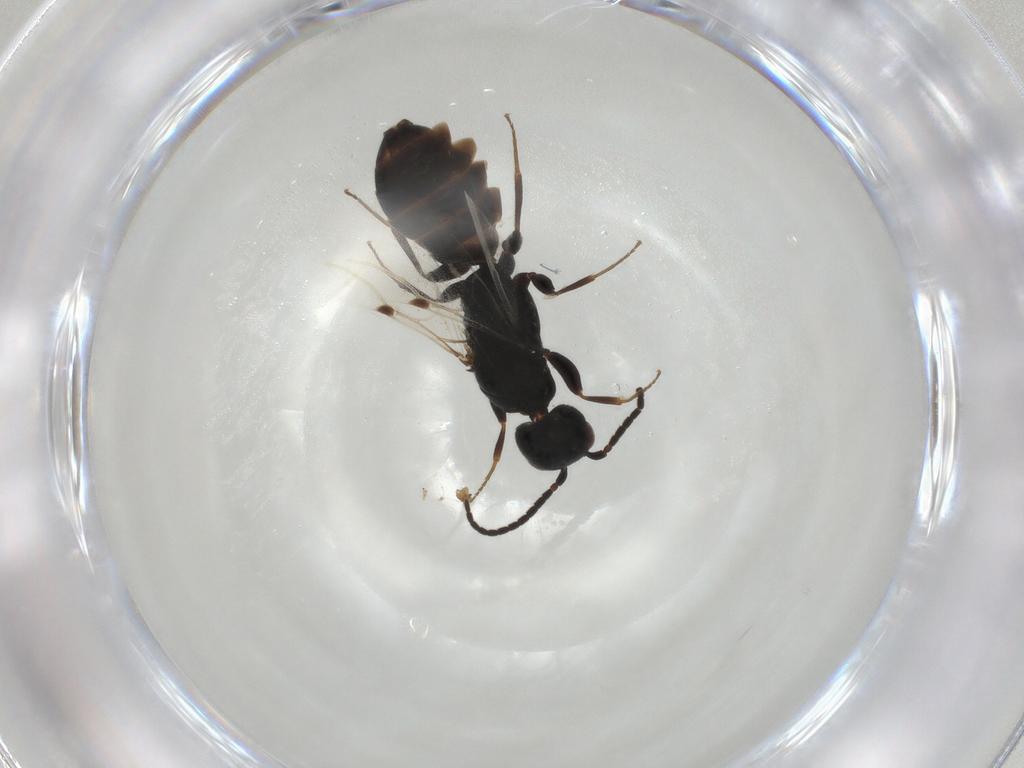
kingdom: Animalia
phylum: Arthropoda
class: Insecta
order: Hymenoptera
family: Bethylidae
